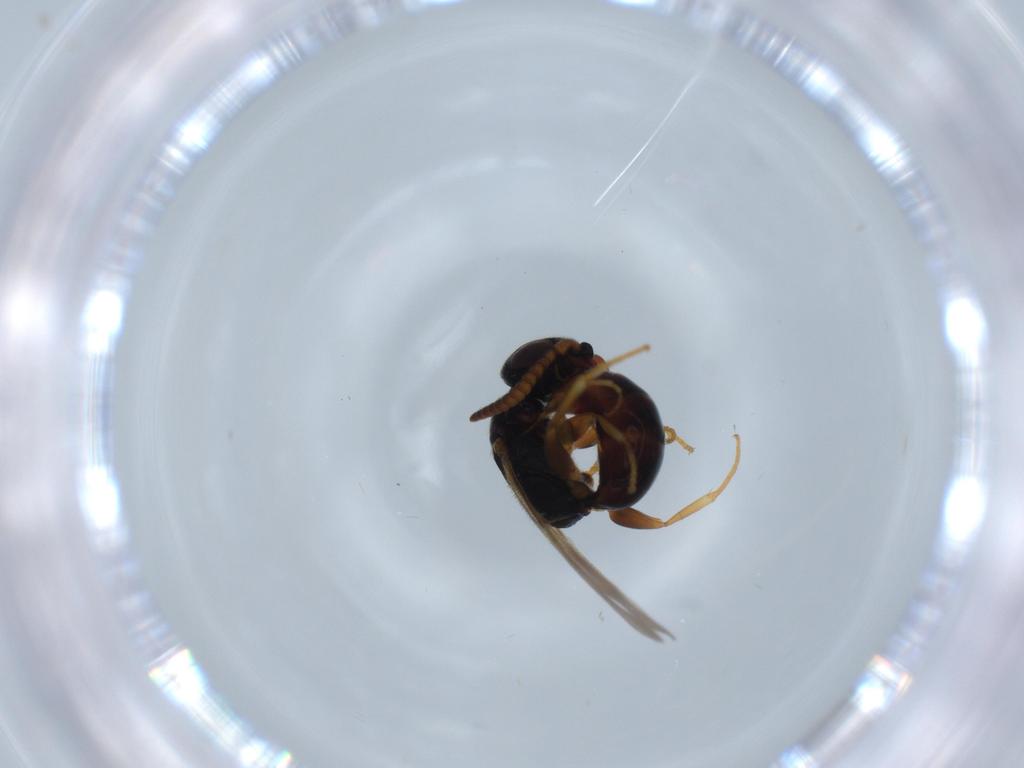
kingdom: Animalia
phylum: Arthropoda
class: Insecta
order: Hymenoptera
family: Bethylidae
